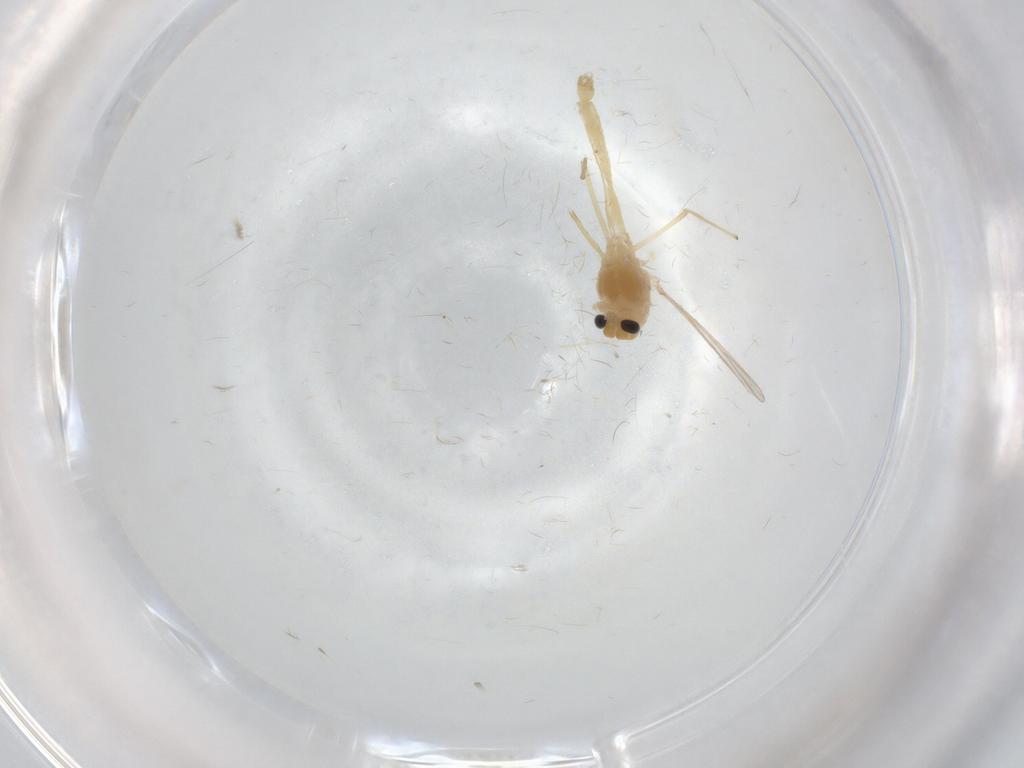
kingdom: Animalia
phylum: Arthropoda
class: Insecta
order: Diptera
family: Chironomidae
